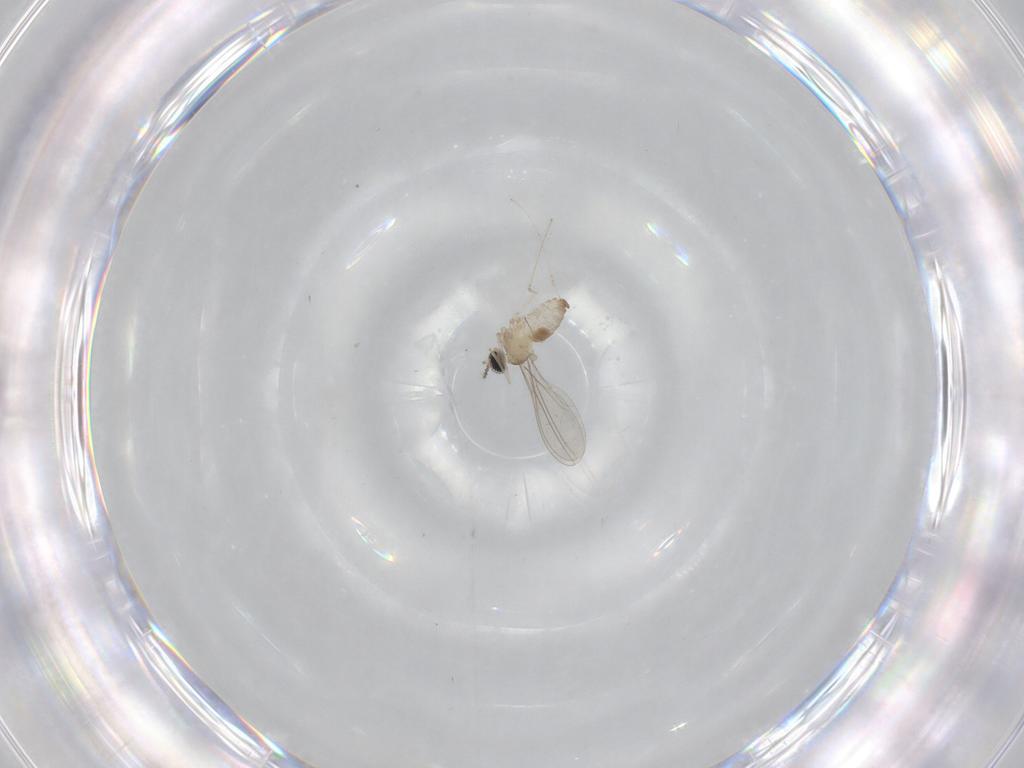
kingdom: Animalia
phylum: Arthropoda
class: Insecta
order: Diptera
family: Cecidomyiidae
